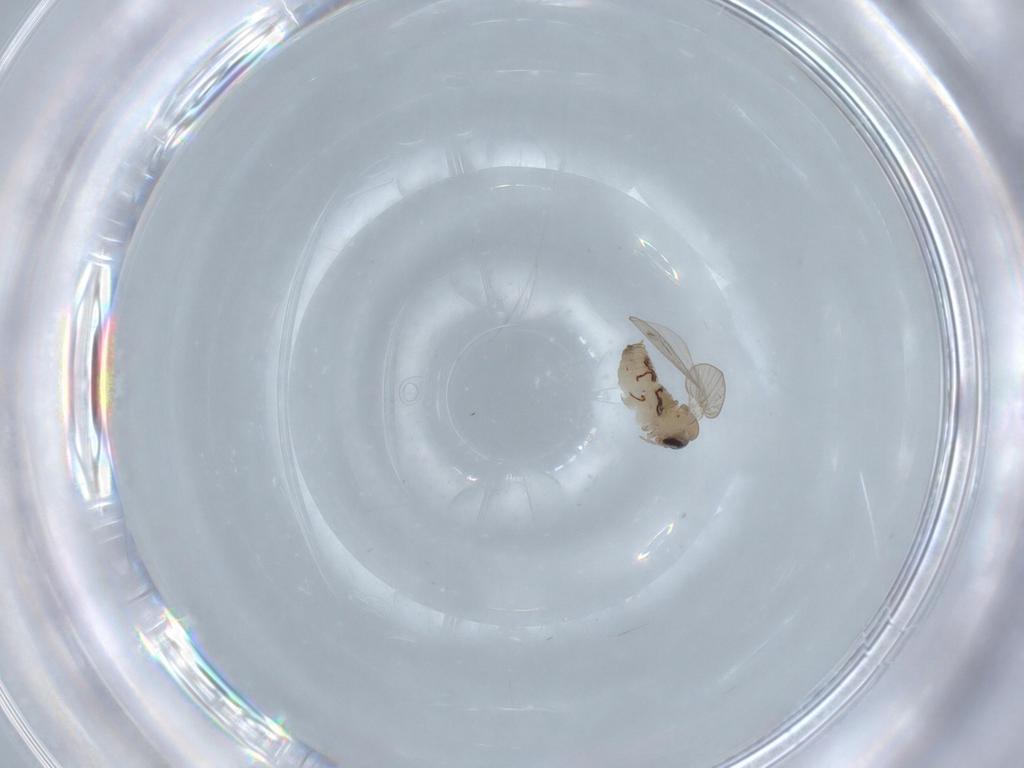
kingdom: Animalia
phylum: Arthropoda
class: Insecta
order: Diptera
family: Psychodidae
